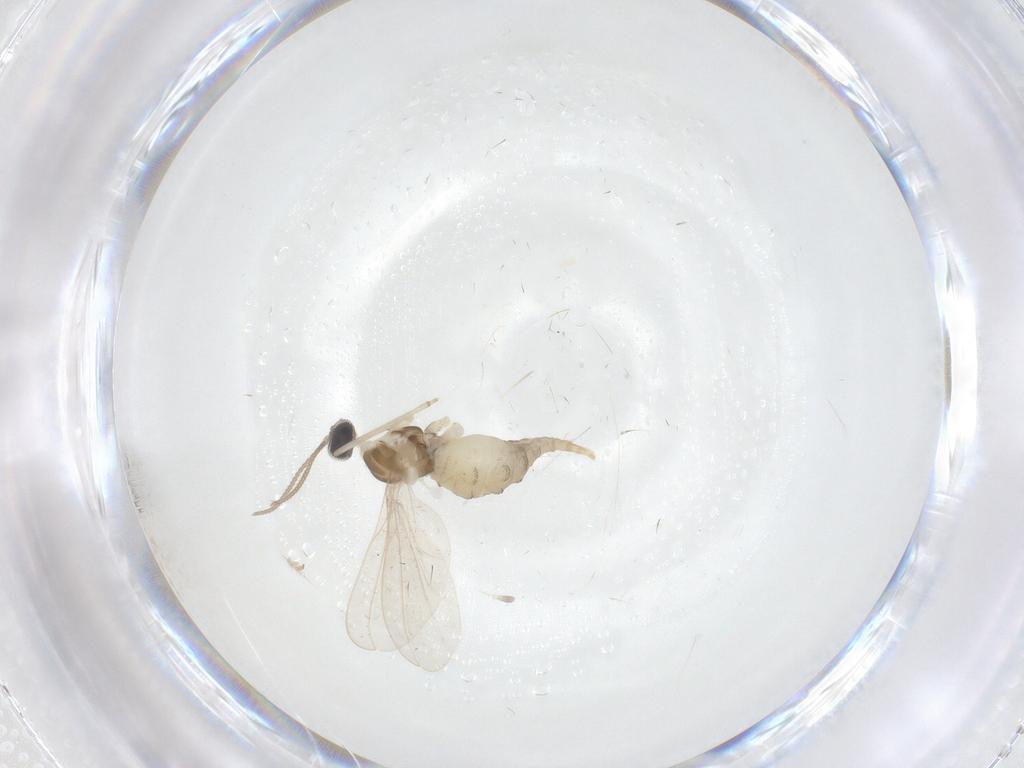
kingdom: Animalia
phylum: Arthropoda
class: Insecta
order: Diptera
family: Cecidomyiidae
